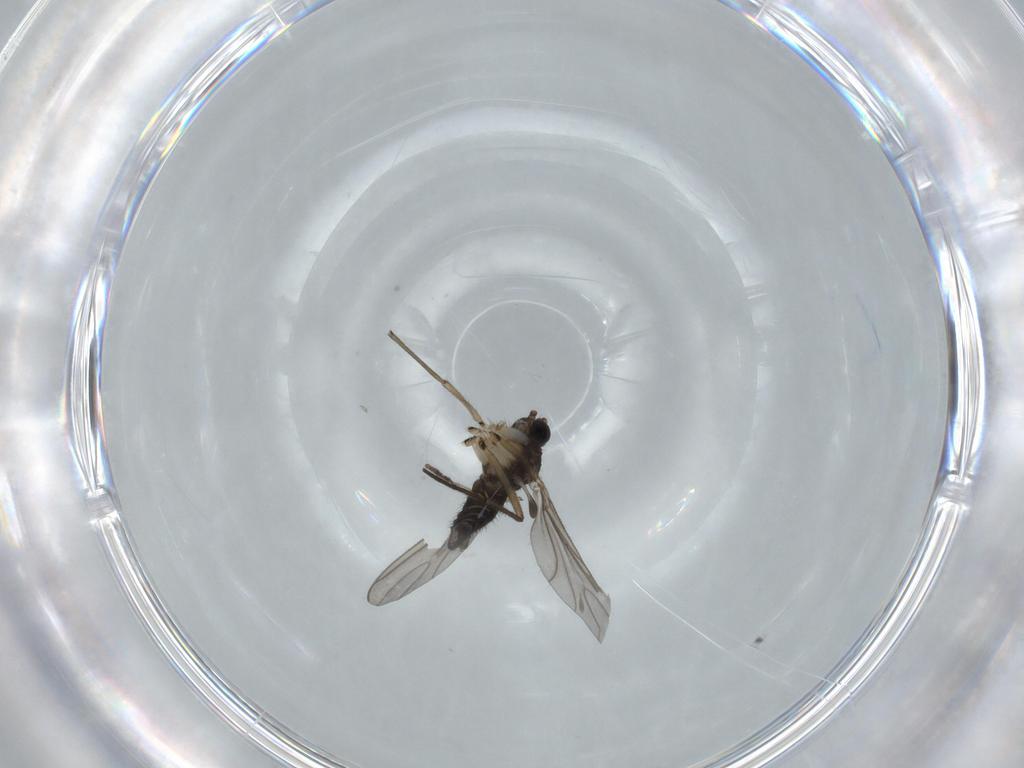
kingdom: Animalia
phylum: Arthropoda
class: Insecta
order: Diptera
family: Sciaridae
